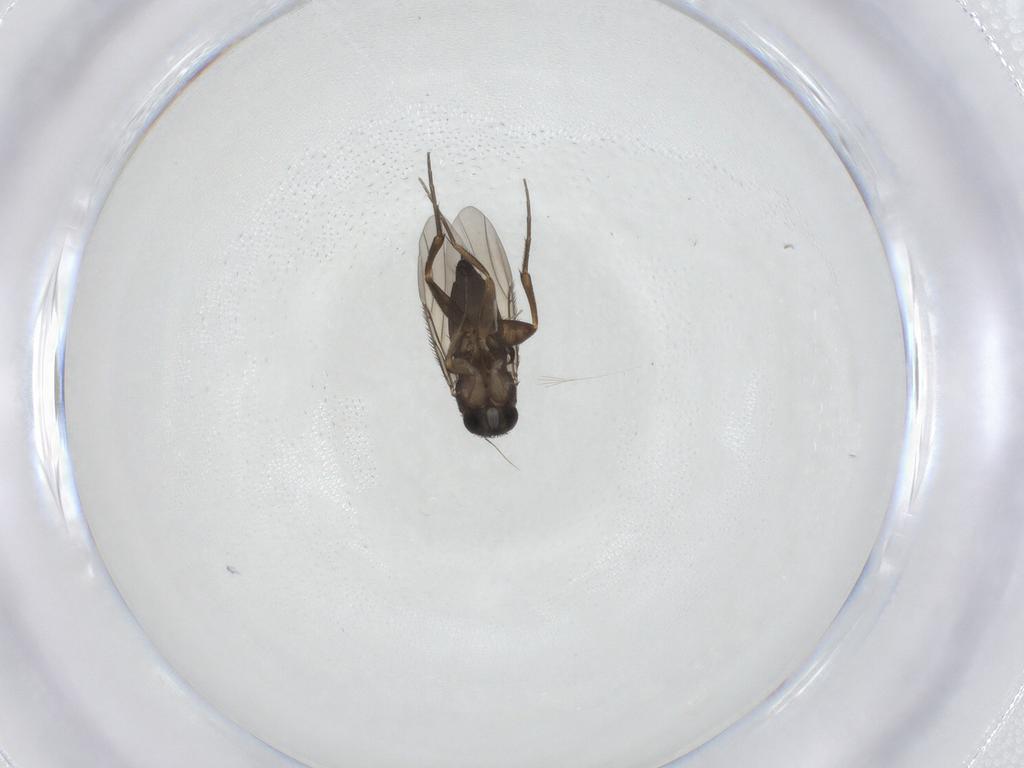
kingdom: Animalia
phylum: Arthropoda
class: Insecta
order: Diptera
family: Phoridae
